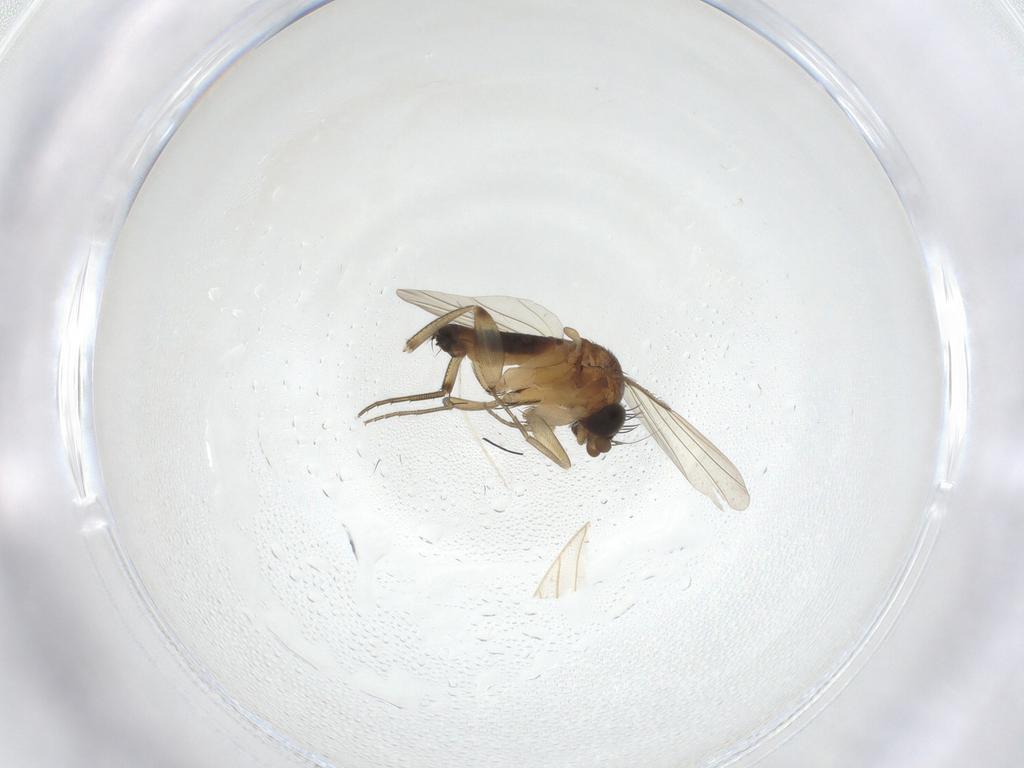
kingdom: Animalia
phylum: Arthropoda
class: Insecta
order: Diptera
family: Phoridae
